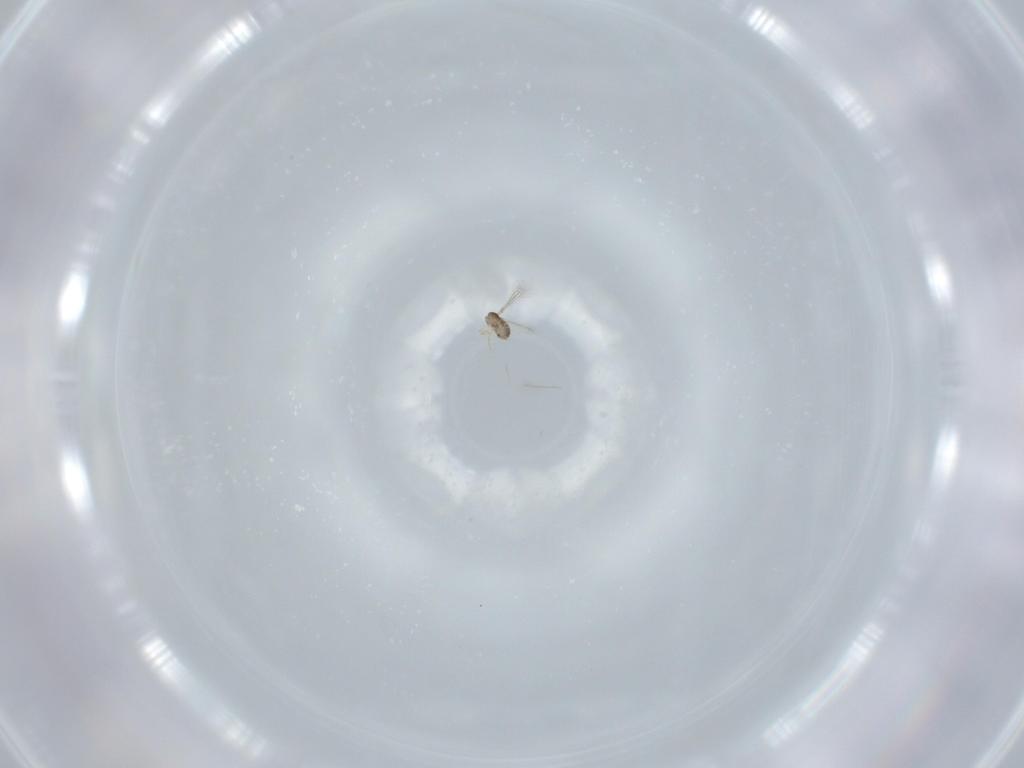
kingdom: Animalia
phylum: Arthropoda
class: Insecta
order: Hymenoptera
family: Mymaridae
